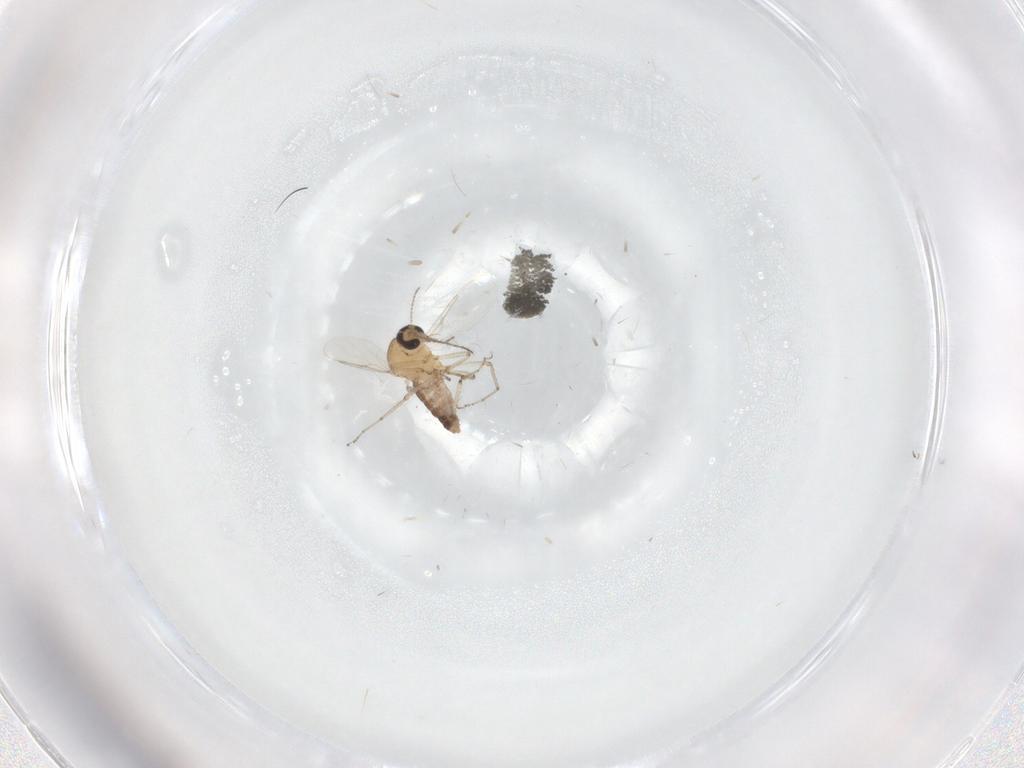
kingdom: Animalia
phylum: Arthropoda
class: Insecta
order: Diptera
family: Ceratopogonidae
